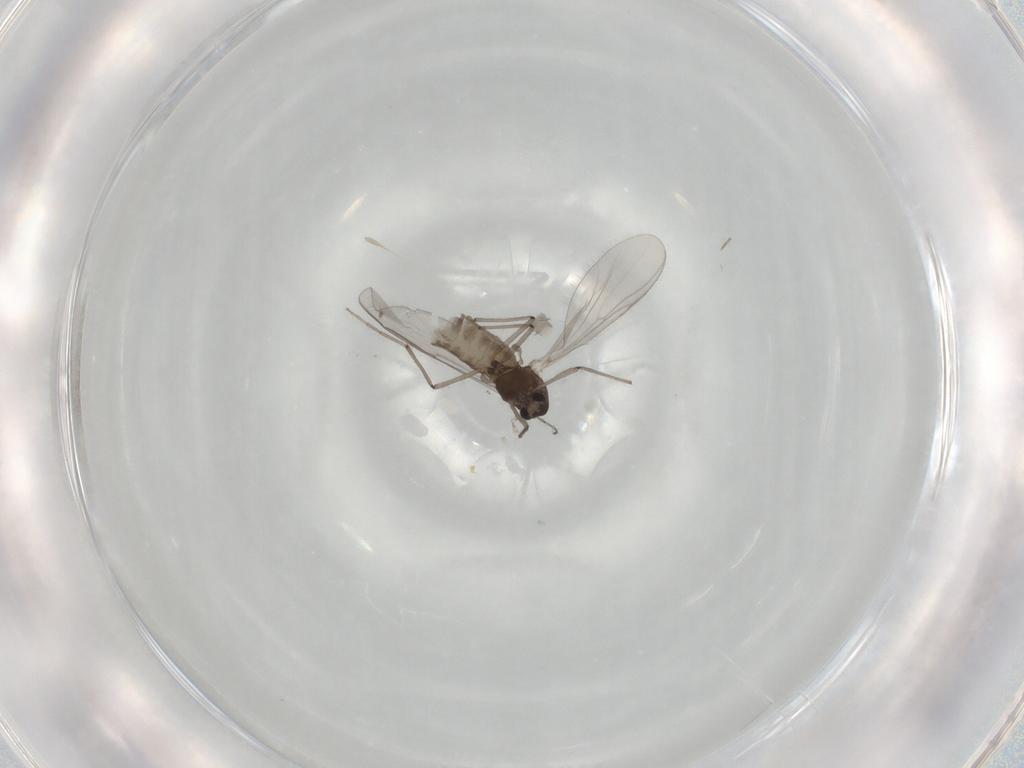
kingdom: Animalia
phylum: Arthropoda
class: Insecta
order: Diptera
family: Chironomidae
